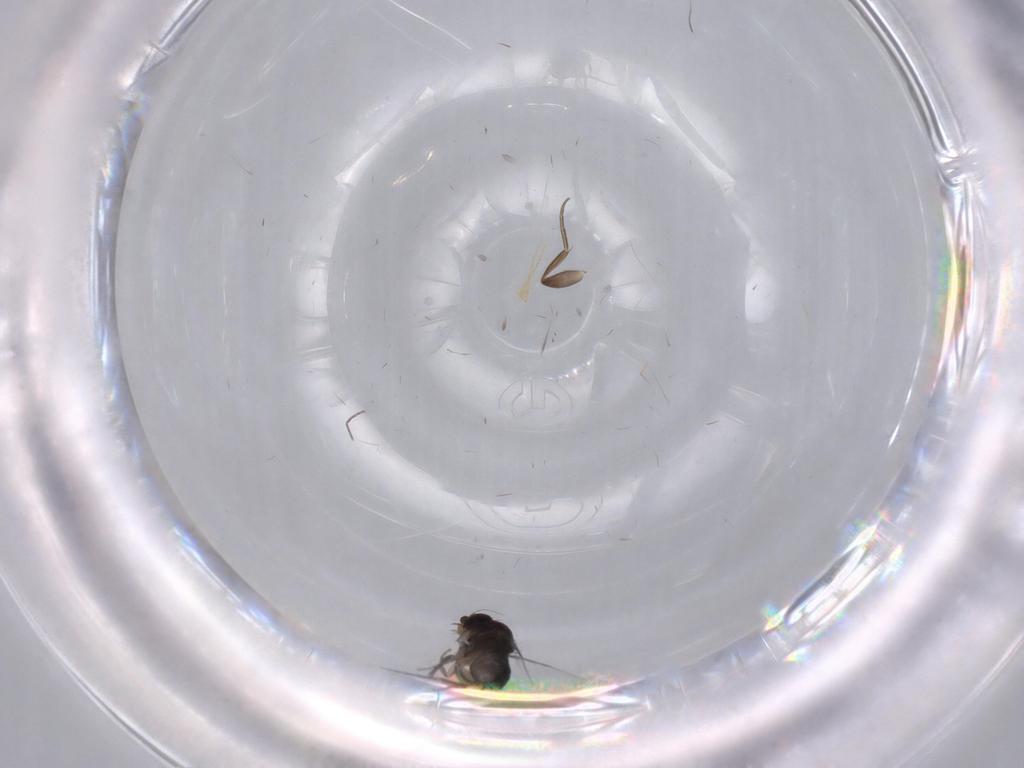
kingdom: Animalia
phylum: Arthropoda
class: Insecta
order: Diptera
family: Phoridae
